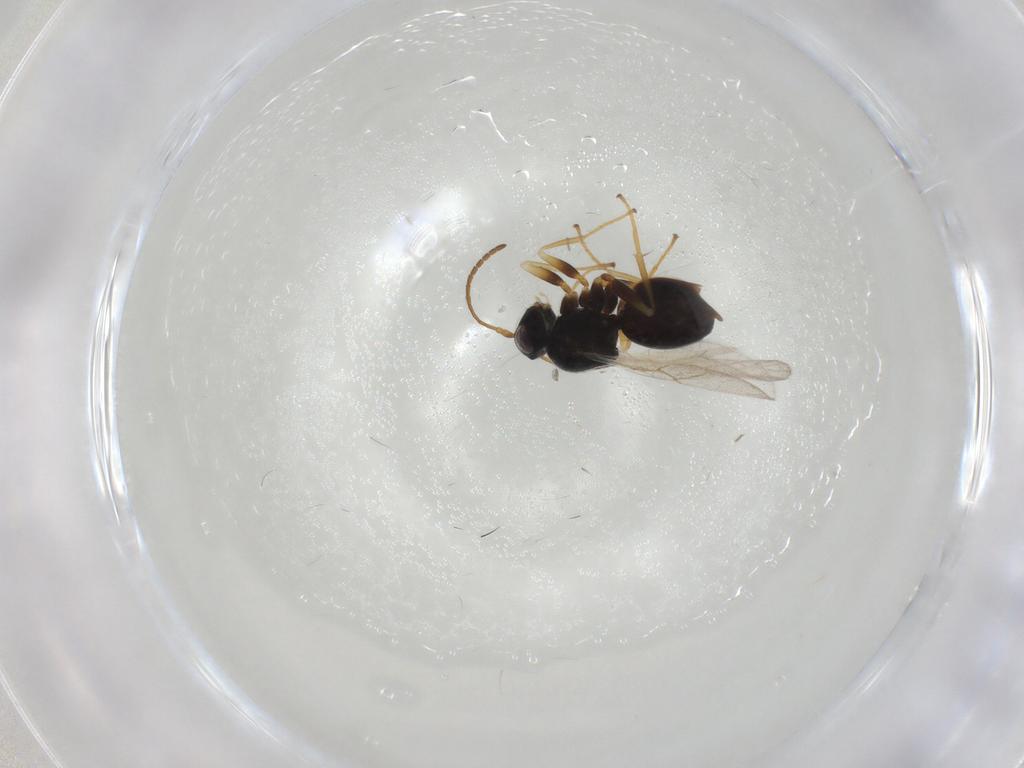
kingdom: Animalia
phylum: Arthropoda
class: Insecta
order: Hymenoptera
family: Cynipidae
